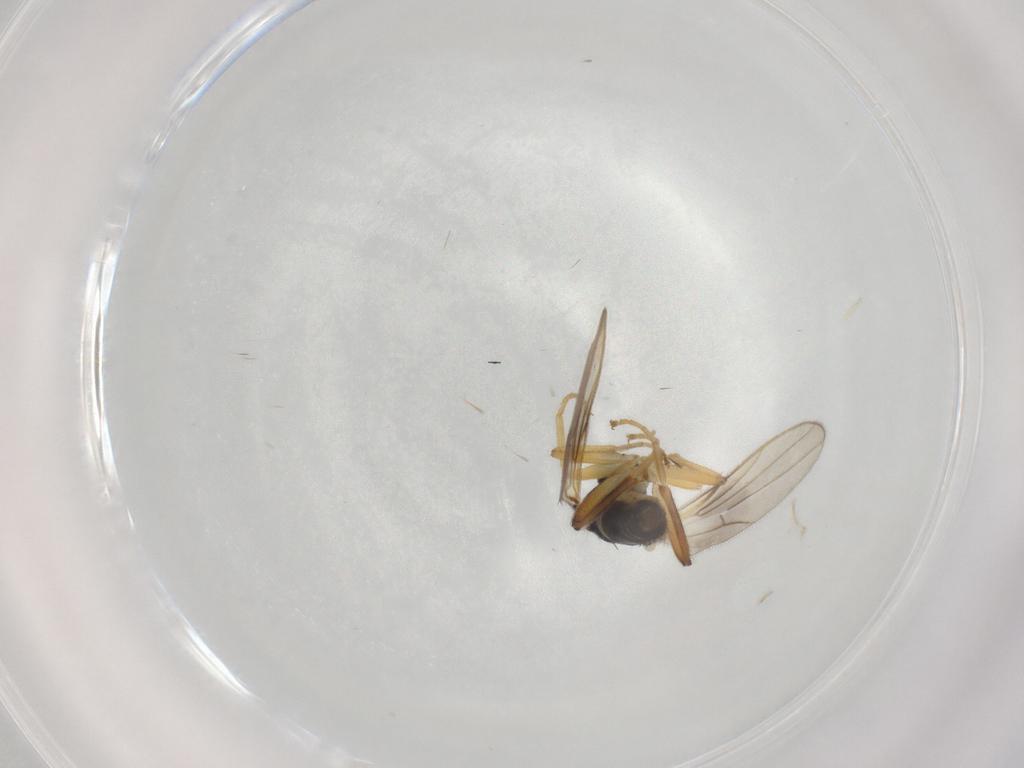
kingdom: Animalia
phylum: Arthropoda
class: Insecta
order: Diptera
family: Hybotidae
